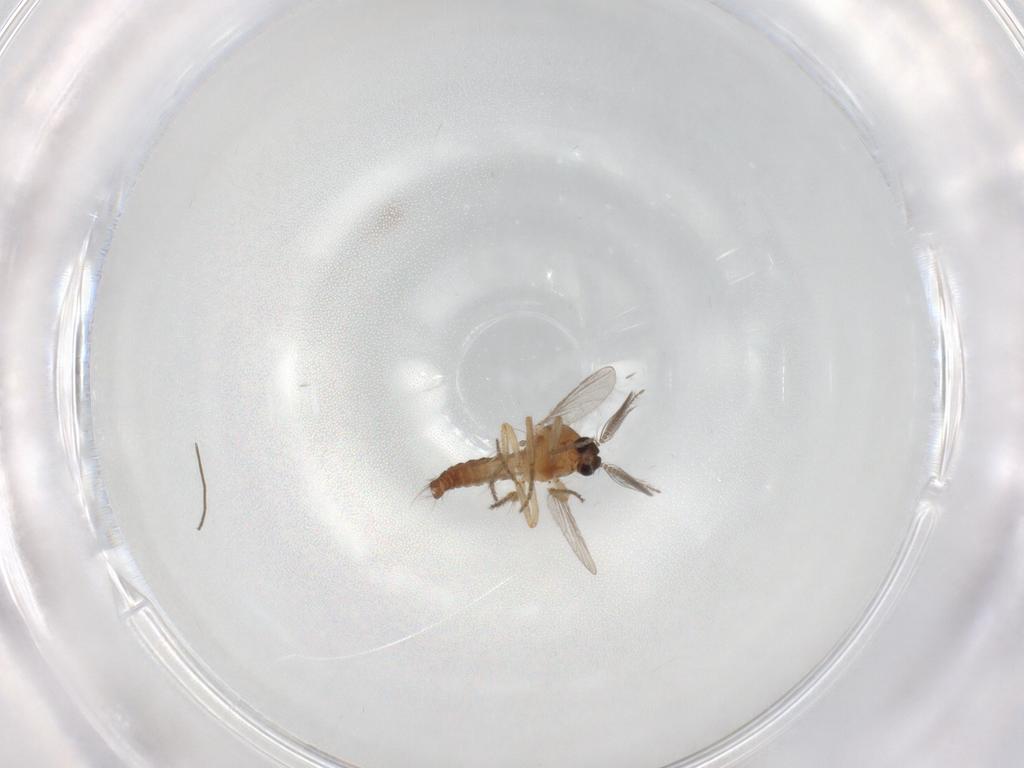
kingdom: Animalia
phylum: Arthropoda
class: Insecta
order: Diptera
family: Ceratopogonidae
